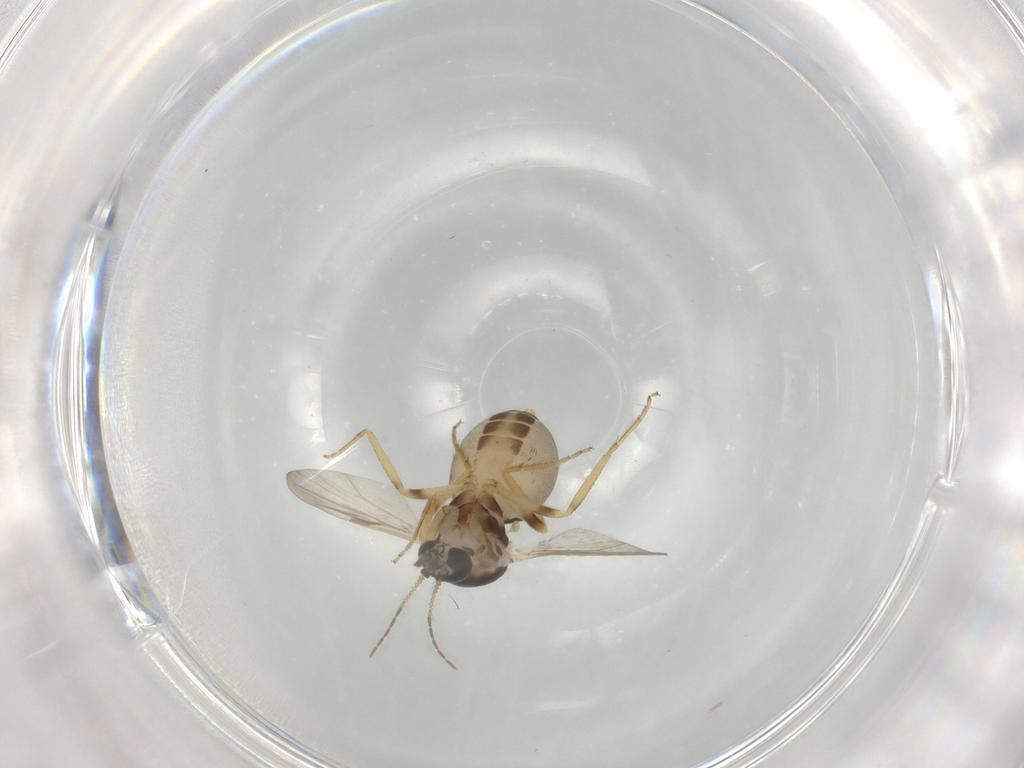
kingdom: Animalia
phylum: Arthropoda
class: Insecta
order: Diptera
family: Ceratopogonidae
